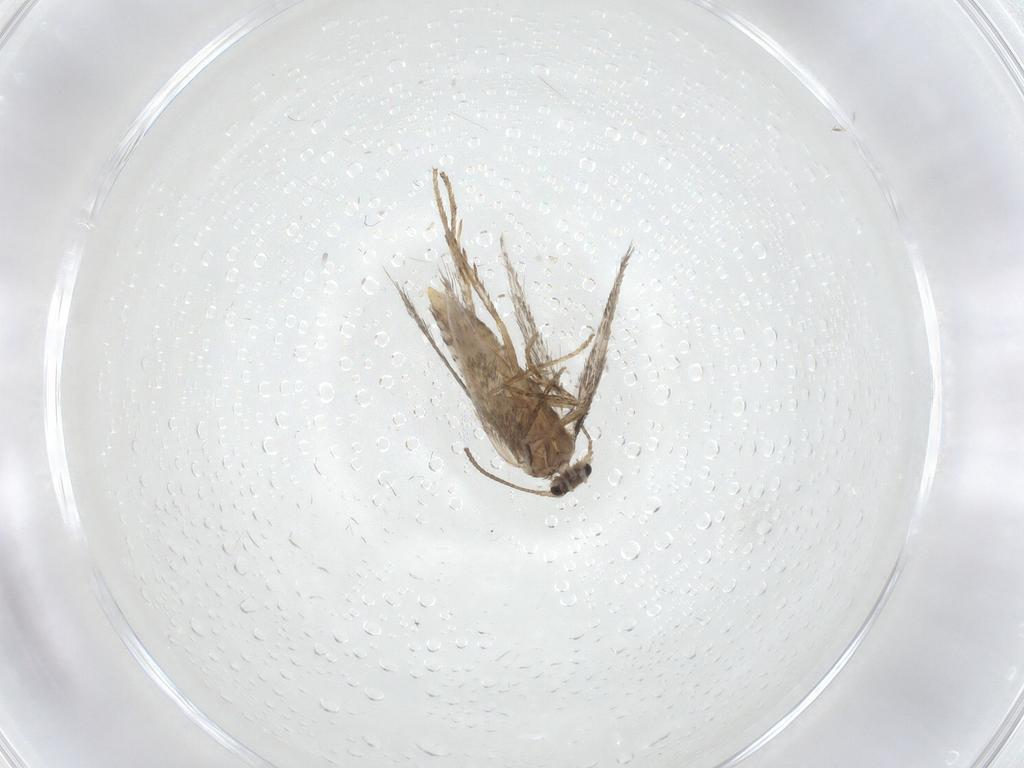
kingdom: Animalia
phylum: Arthropoda
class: Insecta
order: Lepidoptera
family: Nepticulidae
